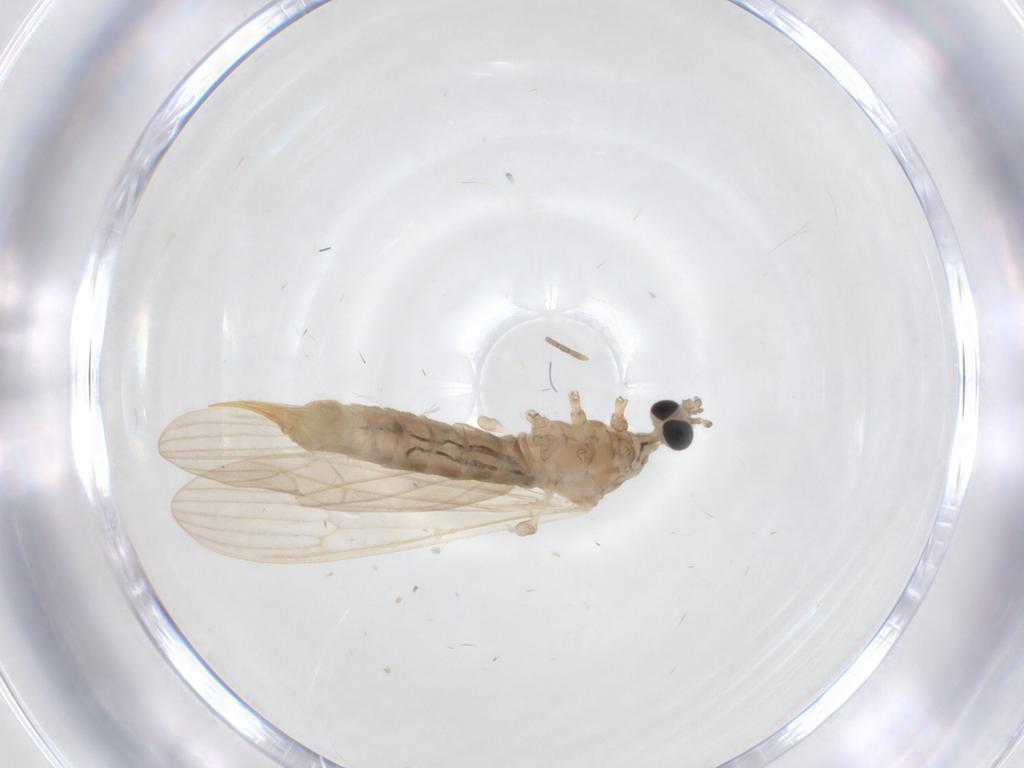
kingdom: Animalia
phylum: Arthropoda
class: Insecta
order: Diptera
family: Limoniidae
